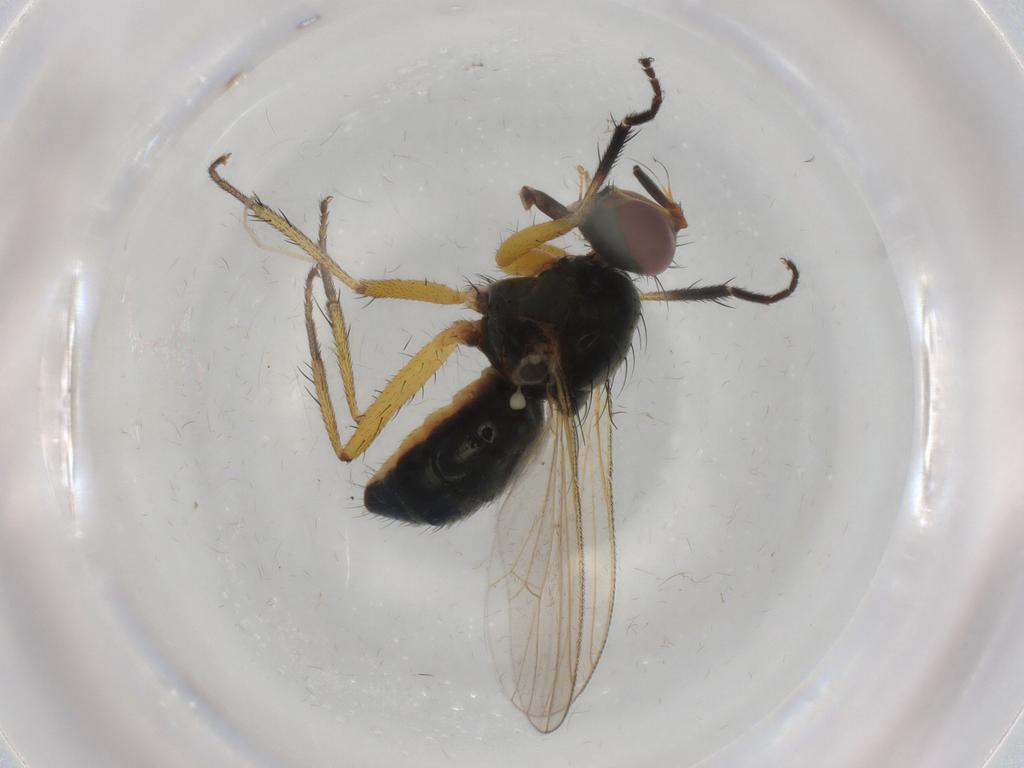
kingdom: Animalia
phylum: Arthropoda
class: Insecta
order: Diptera
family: Muscidae
